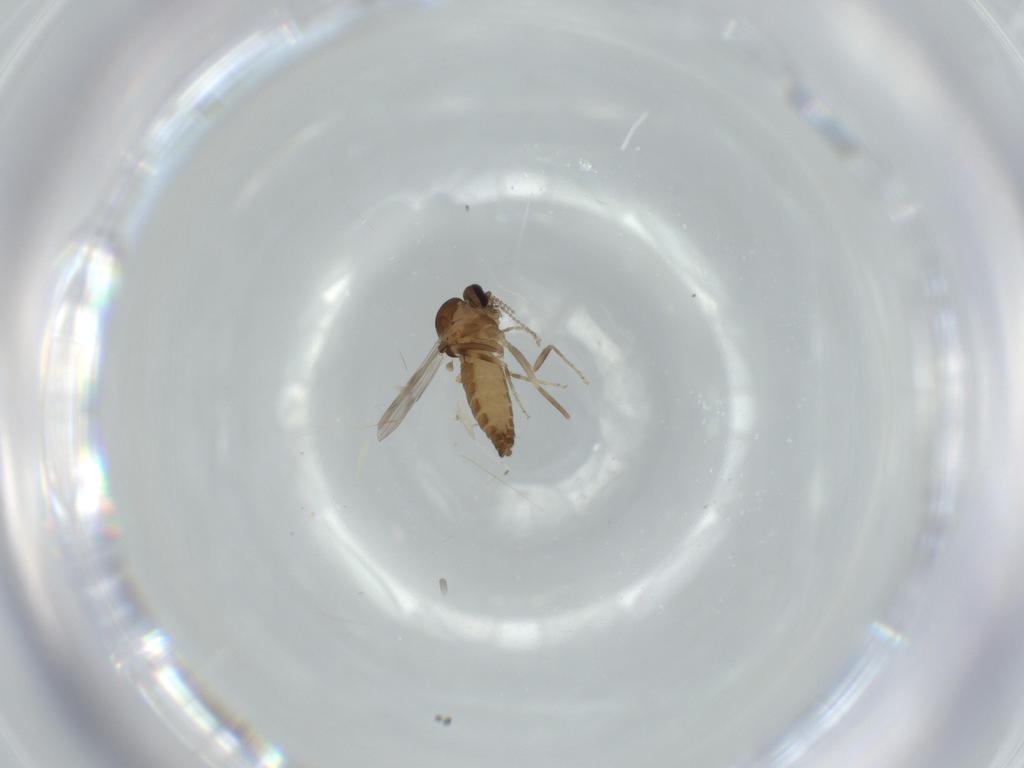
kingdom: Animalia
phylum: Arthropoda
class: Insecta
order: Diptera
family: Ceratopogonidae
